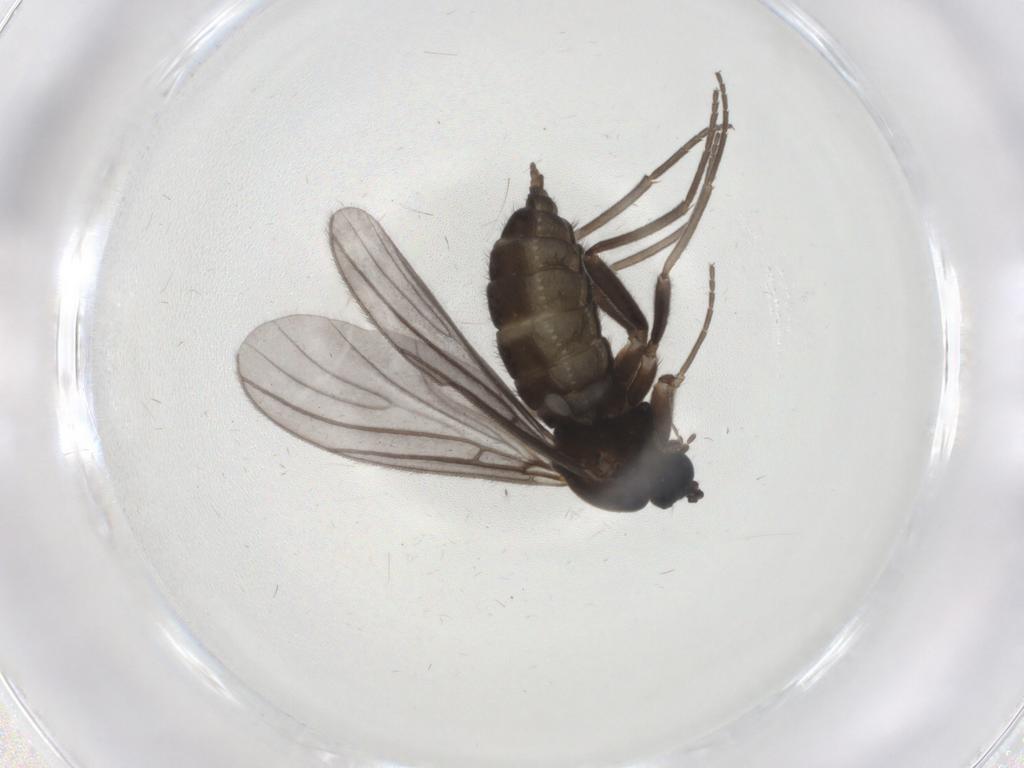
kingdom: Animalia
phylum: Arthropoda
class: Insecta
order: Diptera
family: Sciaridae
